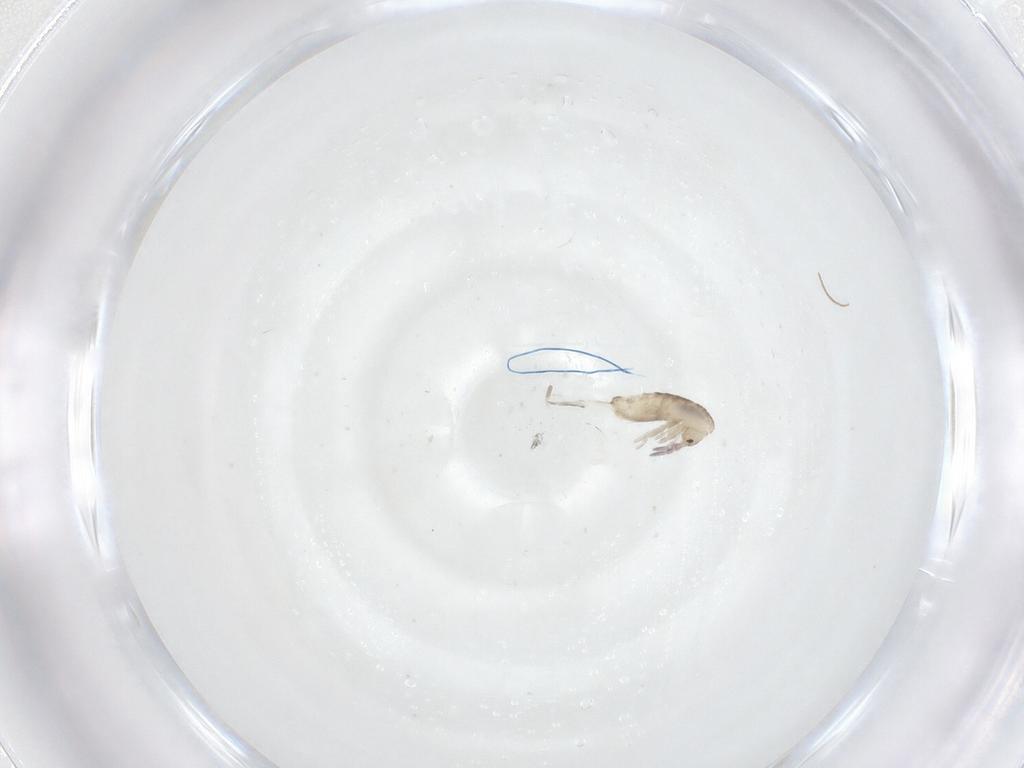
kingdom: Animalia
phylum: Arthropoda
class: Collembola
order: Entomobryomorpha
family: Entomobryidae
